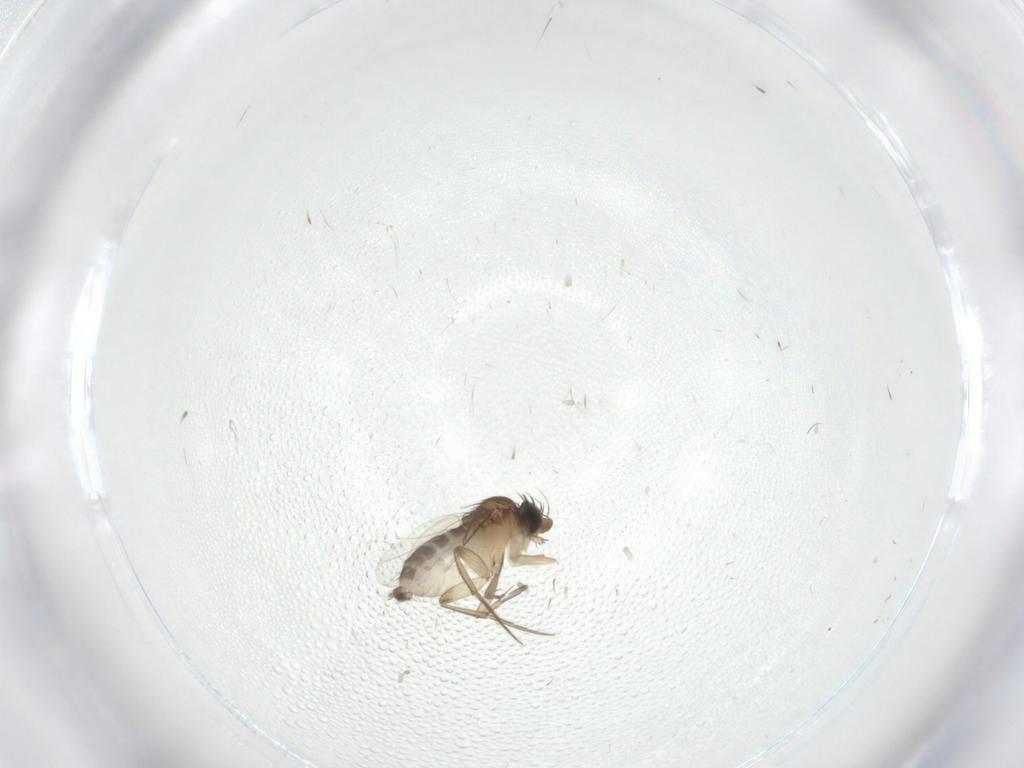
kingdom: Animalia
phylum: Arthropoda
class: Insecta
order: Diptera
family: Phoridae
